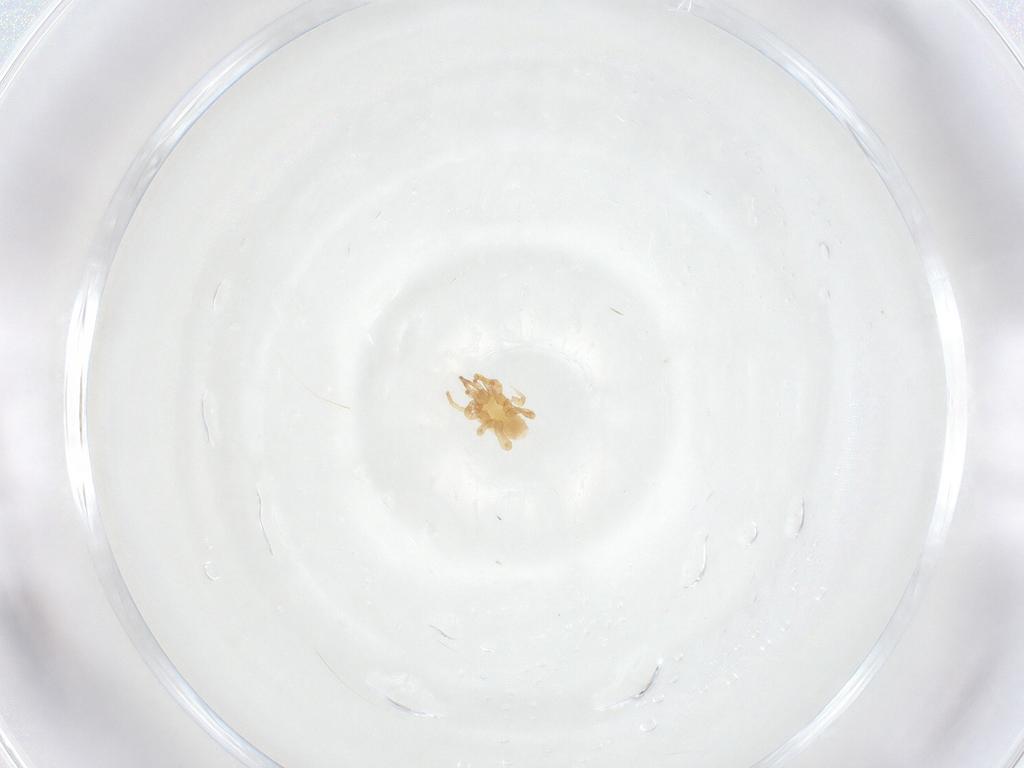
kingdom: Animalia
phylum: Arthropoda
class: Arachnida
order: Mesostigmata
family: Parasitidae
